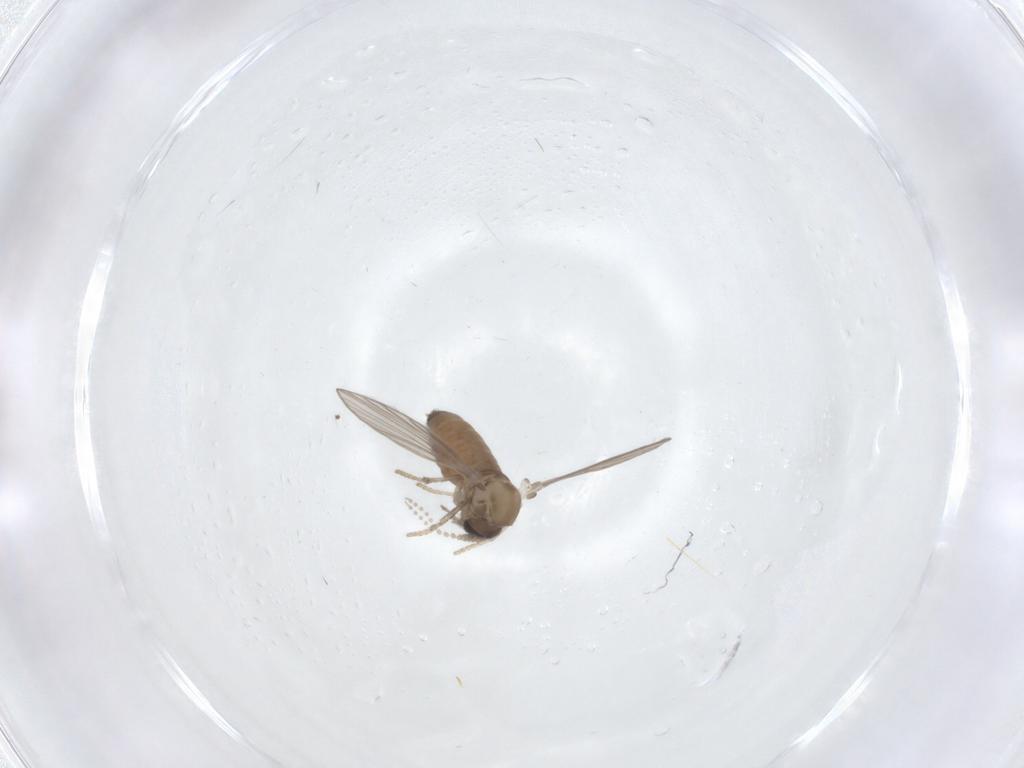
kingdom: Animalia
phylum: Arthropoda
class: Insecta
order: Diptera
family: Psychodidae
